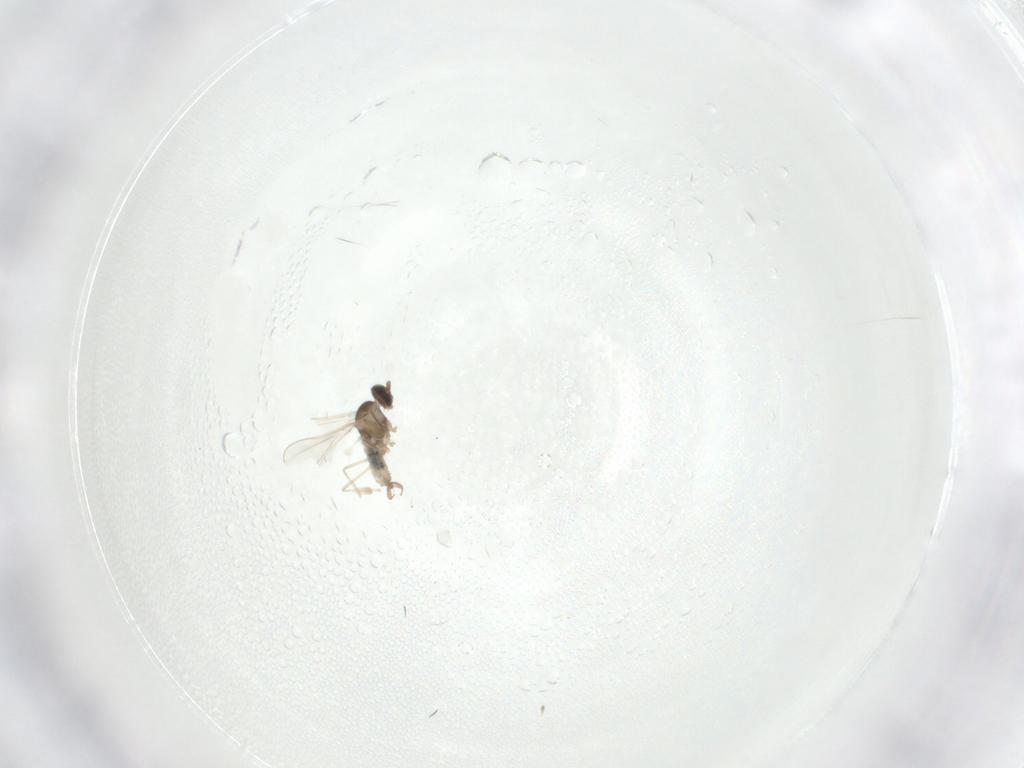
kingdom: Animalia
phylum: Arthropoda
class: Insecta
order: Diptera
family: Cecidomyiidae
